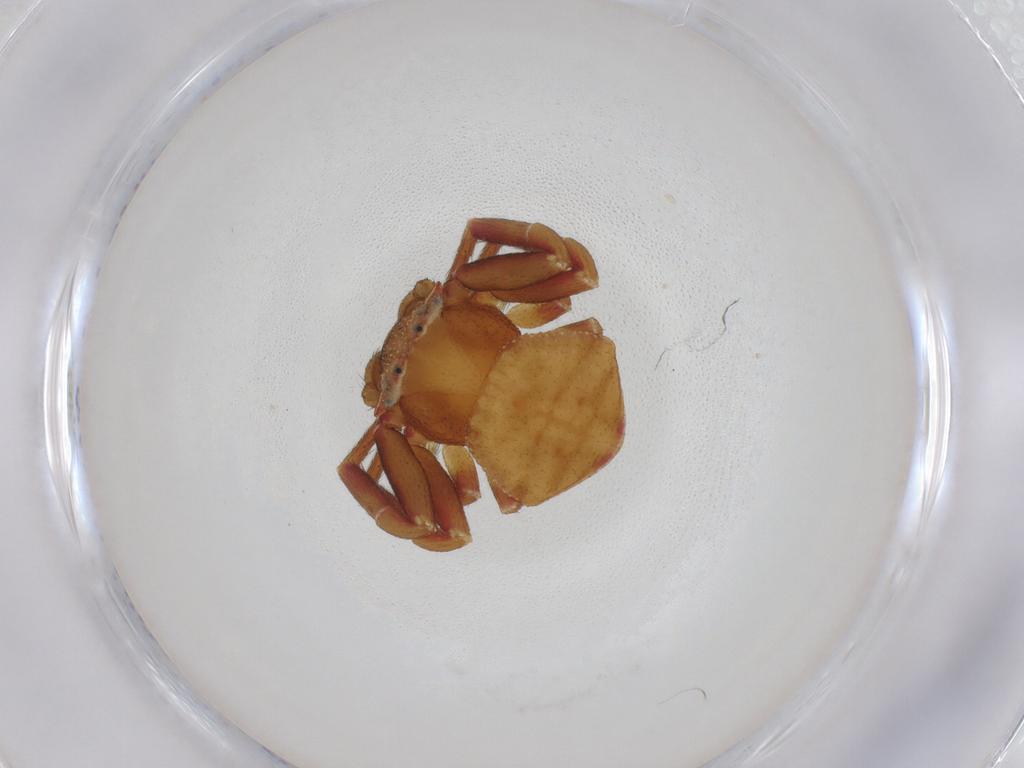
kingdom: Animalia
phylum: Arthropoda
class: Arachnida
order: Araneae
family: Thomisidae
